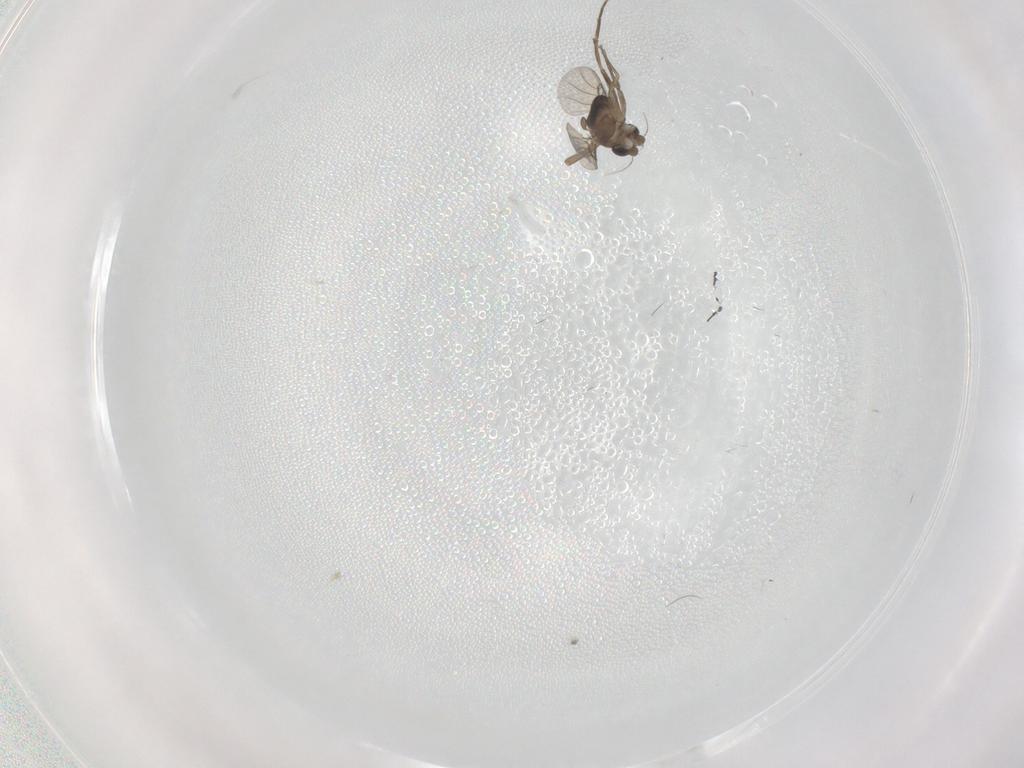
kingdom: Animalia
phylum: Arthropoda
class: Insecta
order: Diptera
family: Phoridae
